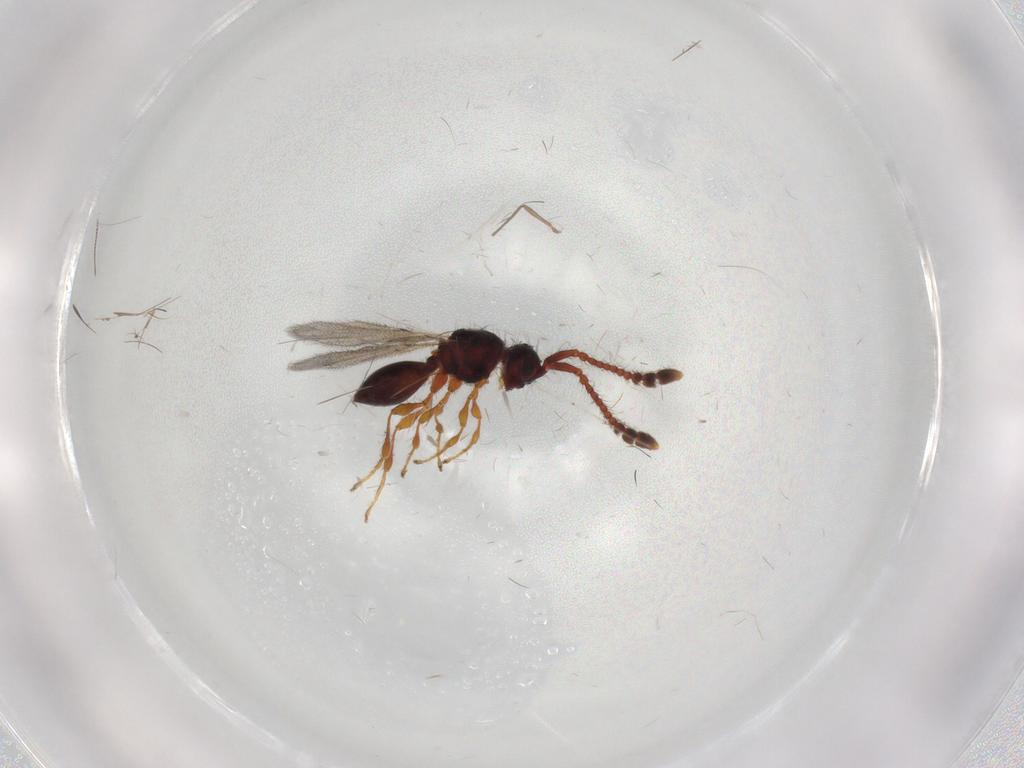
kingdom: Animalia
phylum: Arthropoda
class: Insecta
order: Hymenoptera
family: Diapriidae
